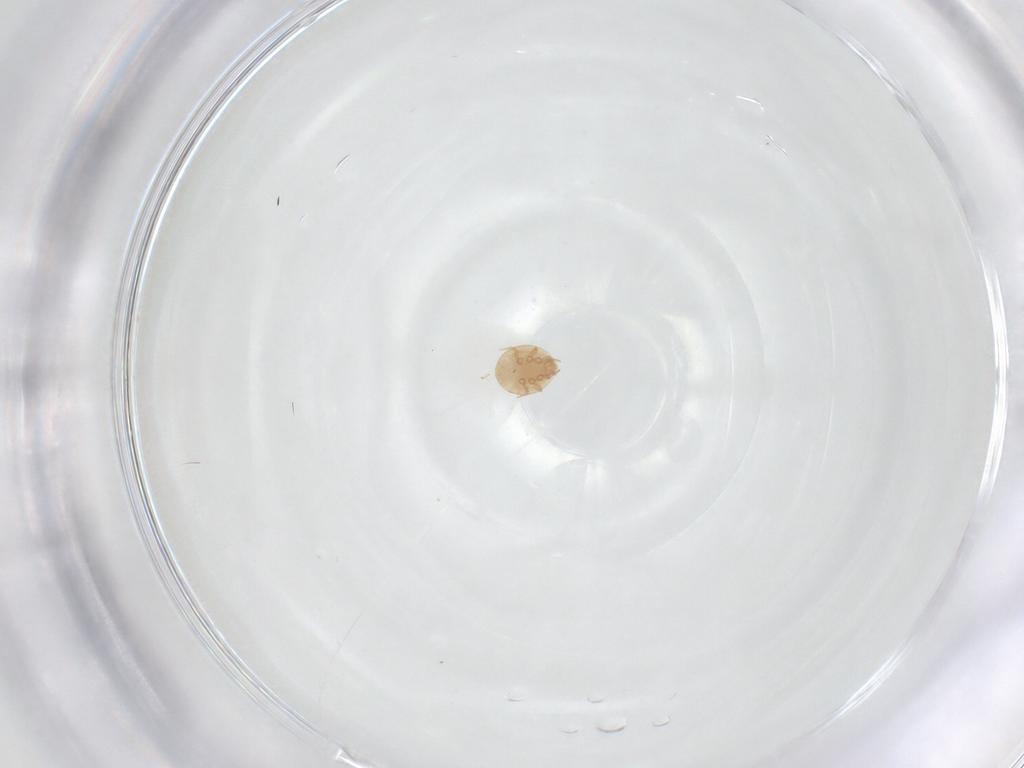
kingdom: Animalia
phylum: Arthropoda
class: Arachnida
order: Mesostigmata
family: Trematuridae
